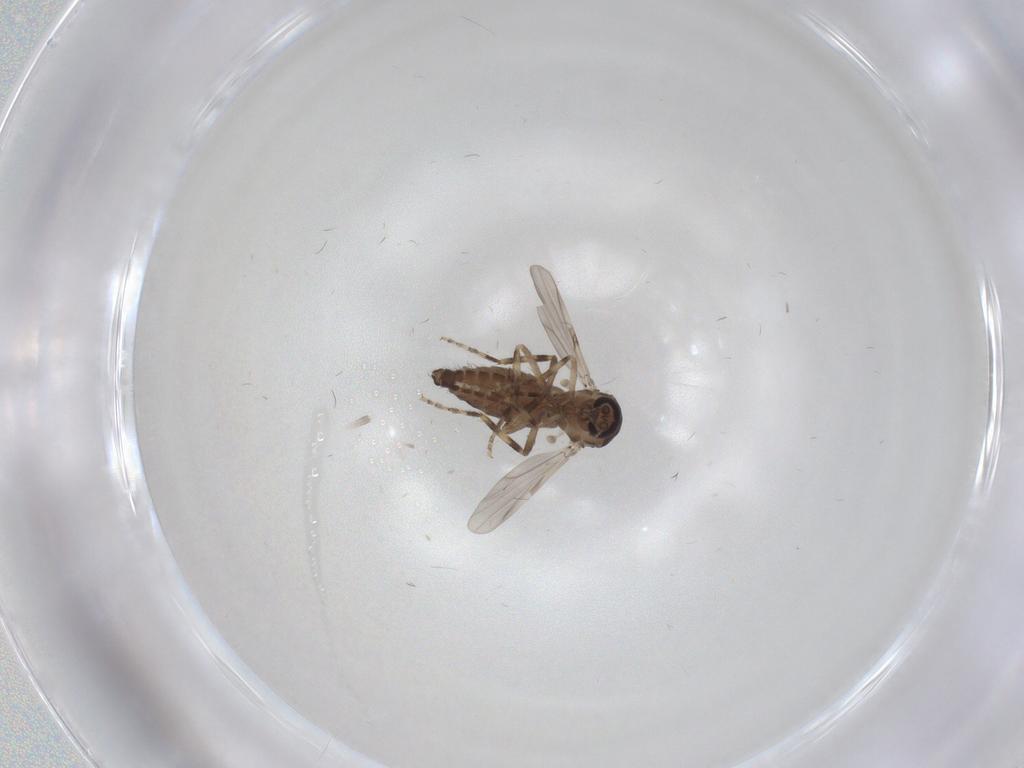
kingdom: Animalia
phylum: Arthropoda
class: Insecta
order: Diptera
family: Ceratopogonidae
